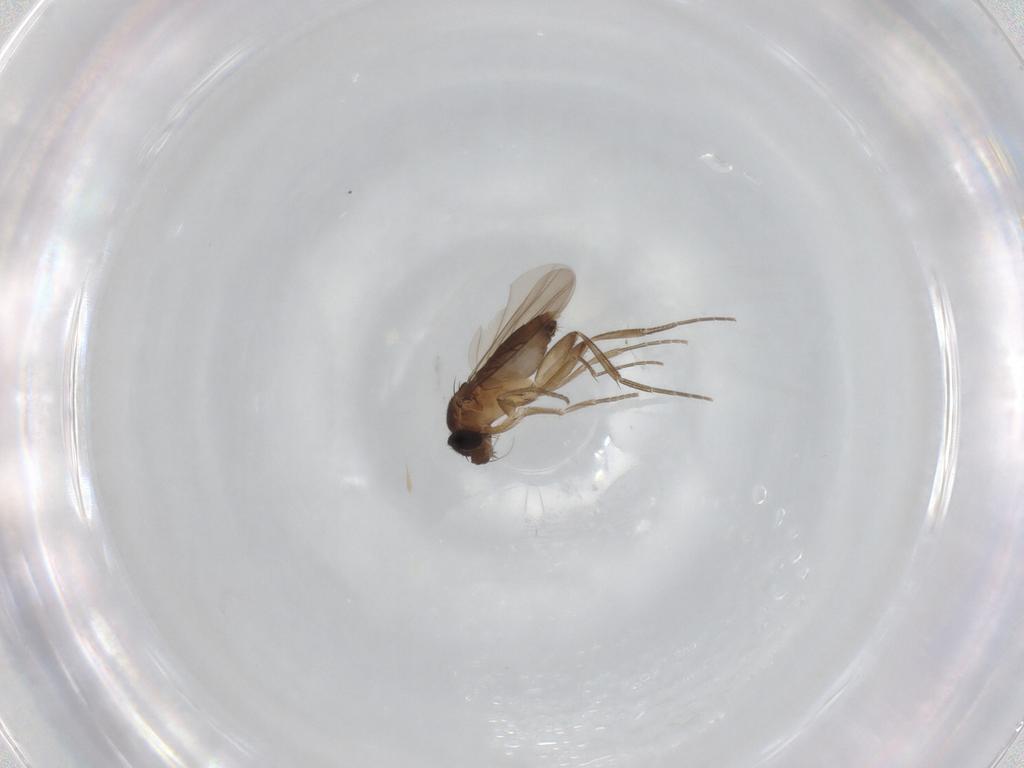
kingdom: Animalia
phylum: Arthropoda
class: Insecta
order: Diptera
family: Phoridae
